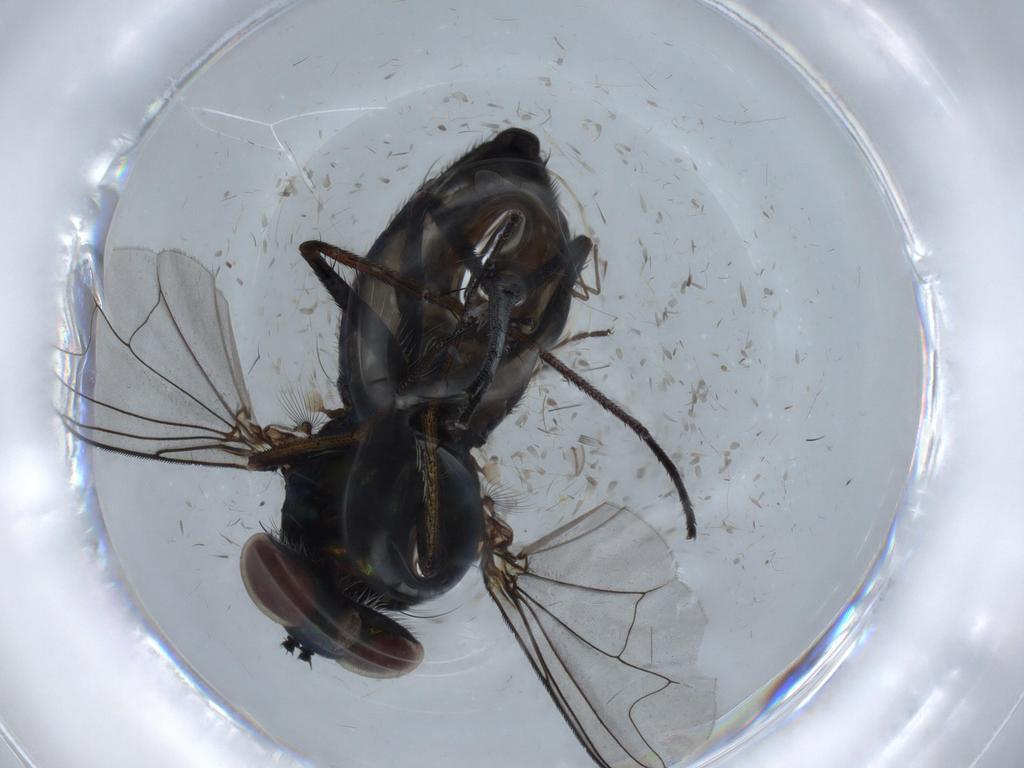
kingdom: Animalia
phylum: Arthropoda
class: Insecta
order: Diptera
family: Dolichopodidae
